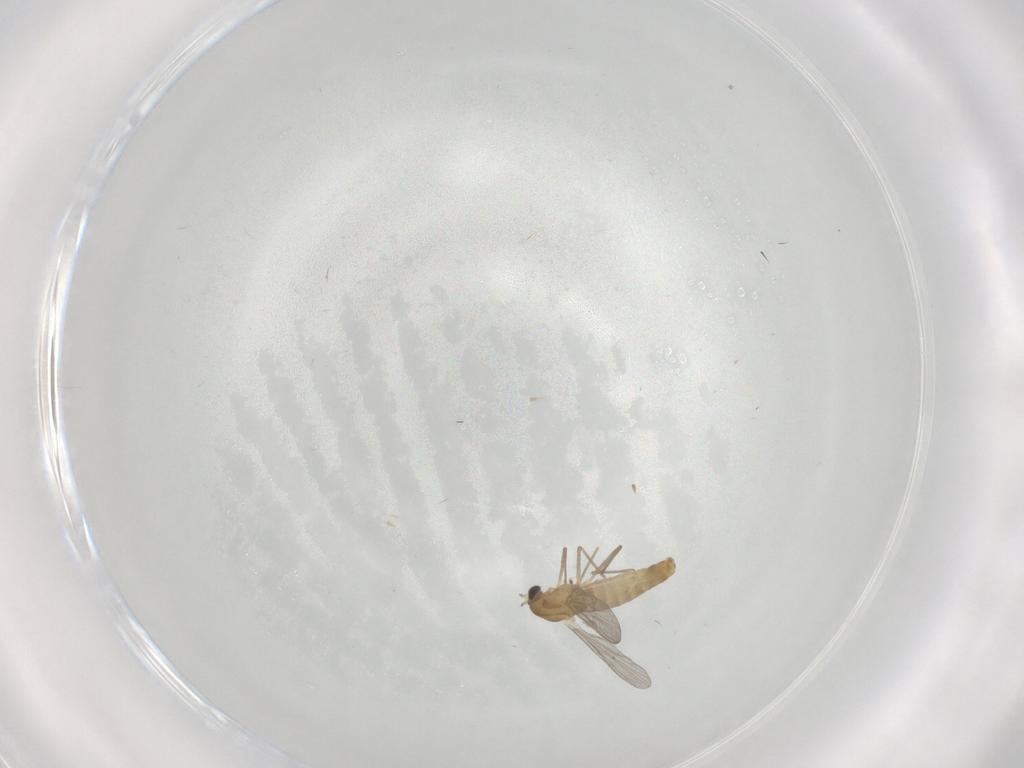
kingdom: Animalia
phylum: Arthropoda
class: Insecta
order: Diptera
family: Chironomidae
